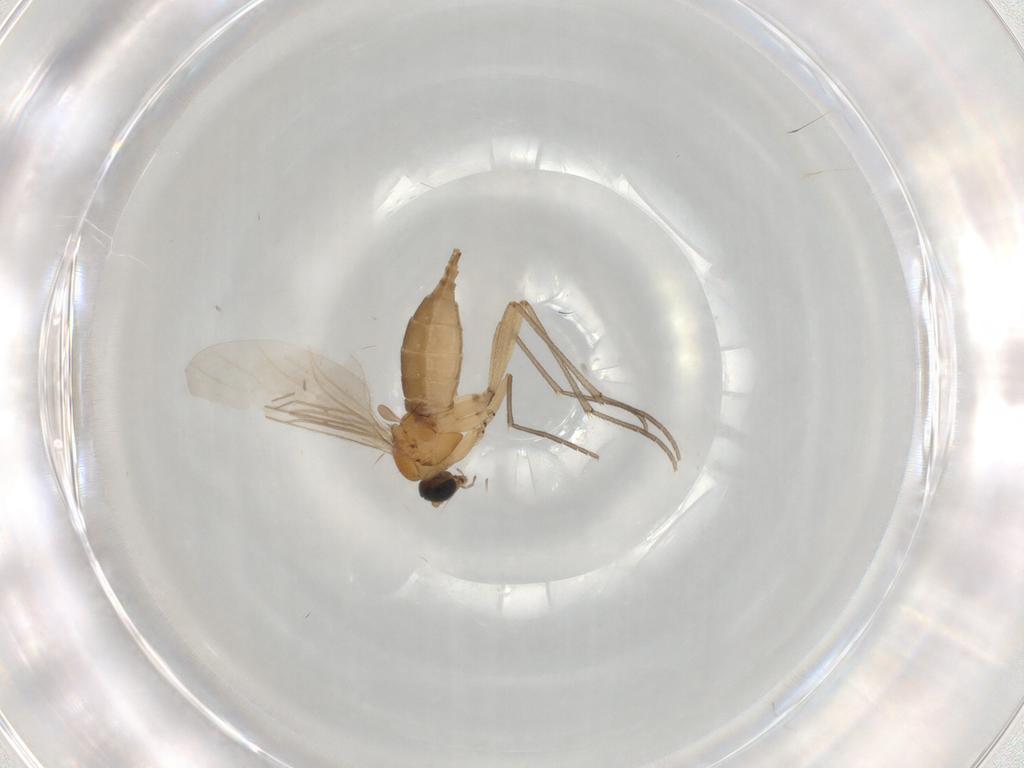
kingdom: Animalia
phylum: Arthropoda
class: Insecta
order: Diptera
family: Sciaridae
